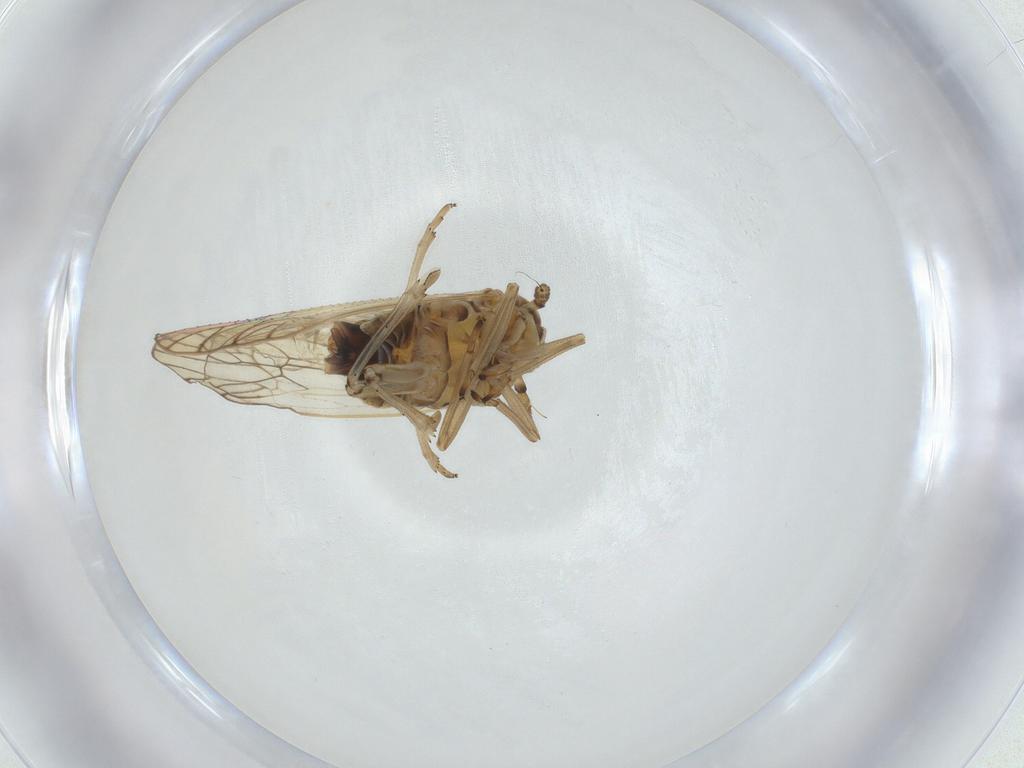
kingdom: Animalia
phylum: Arthropoda
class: Insecta
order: Hemiptera
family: Delphacidae
